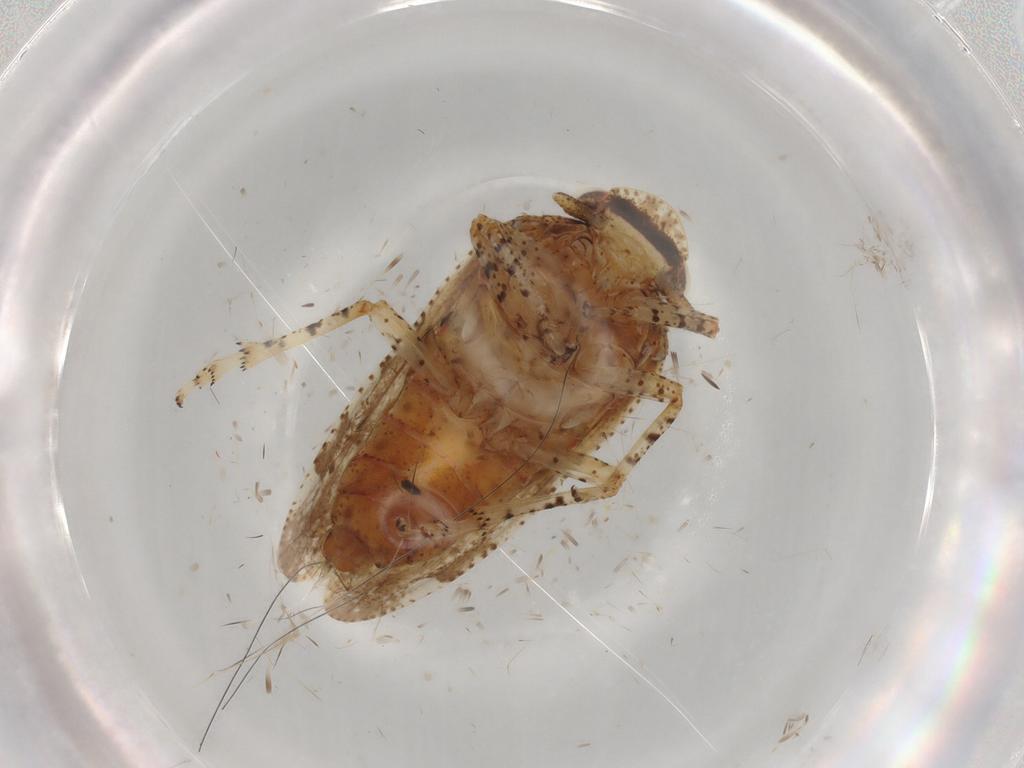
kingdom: Animalia
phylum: Arthropoda
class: Insecta
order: Hemiptera
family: Tettigometridae
